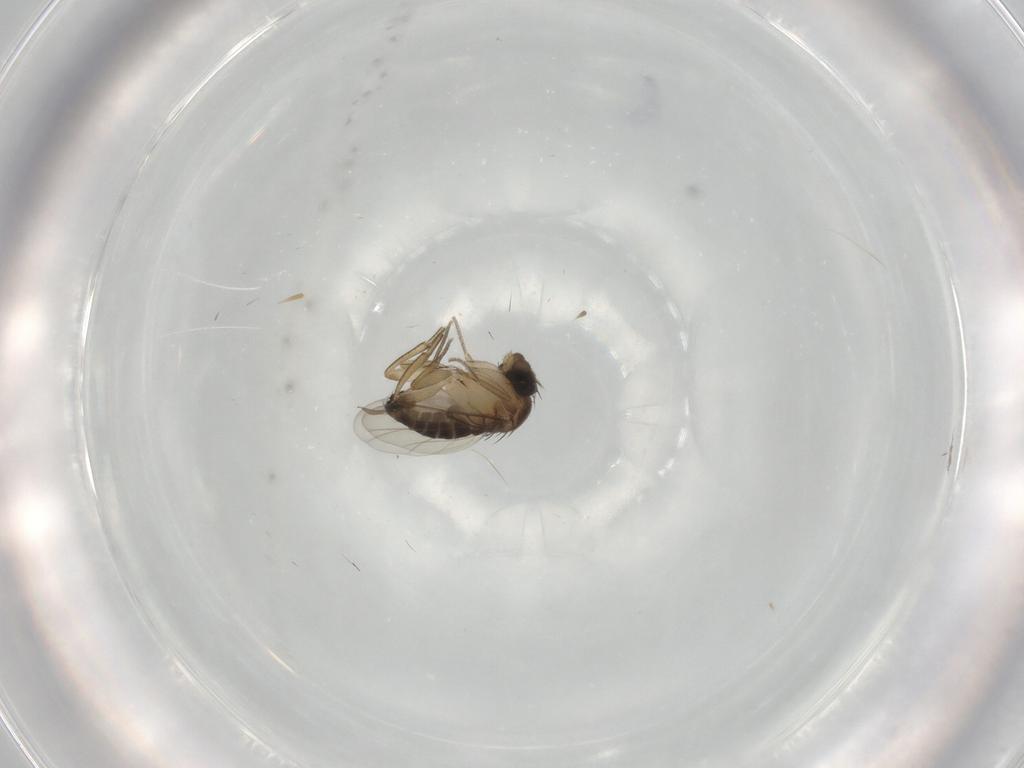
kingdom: Animalia
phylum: Arthropoda
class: Insecta
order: Diptera
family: Cecidomyiidae
